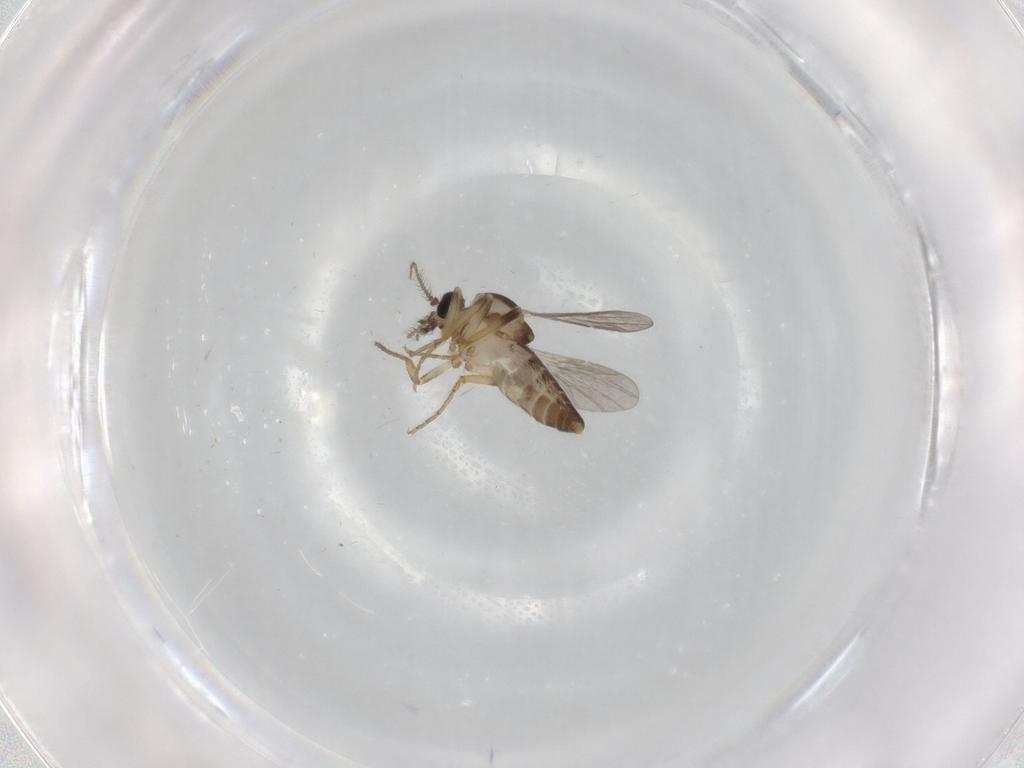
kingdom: Animalia
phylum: Arthropoda
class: Insecta
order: Diptera
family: Ceratopogonidae
